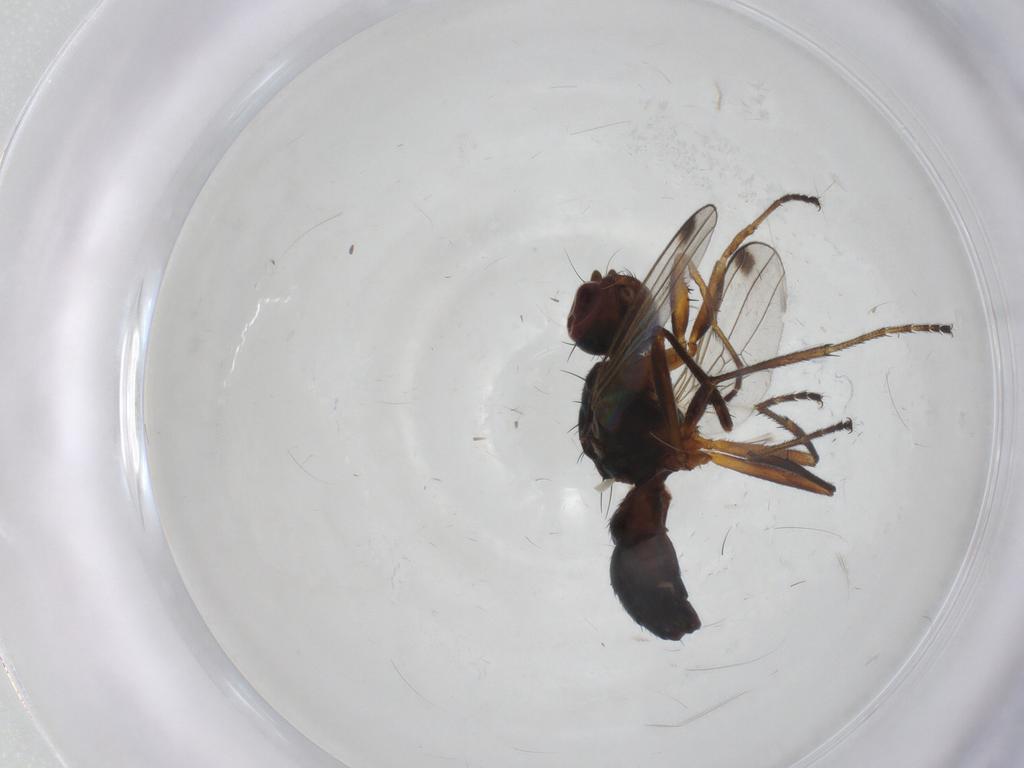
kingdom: Animalia
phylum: Arthropoda
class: Insecta
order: Diptera
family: Sepsidae
